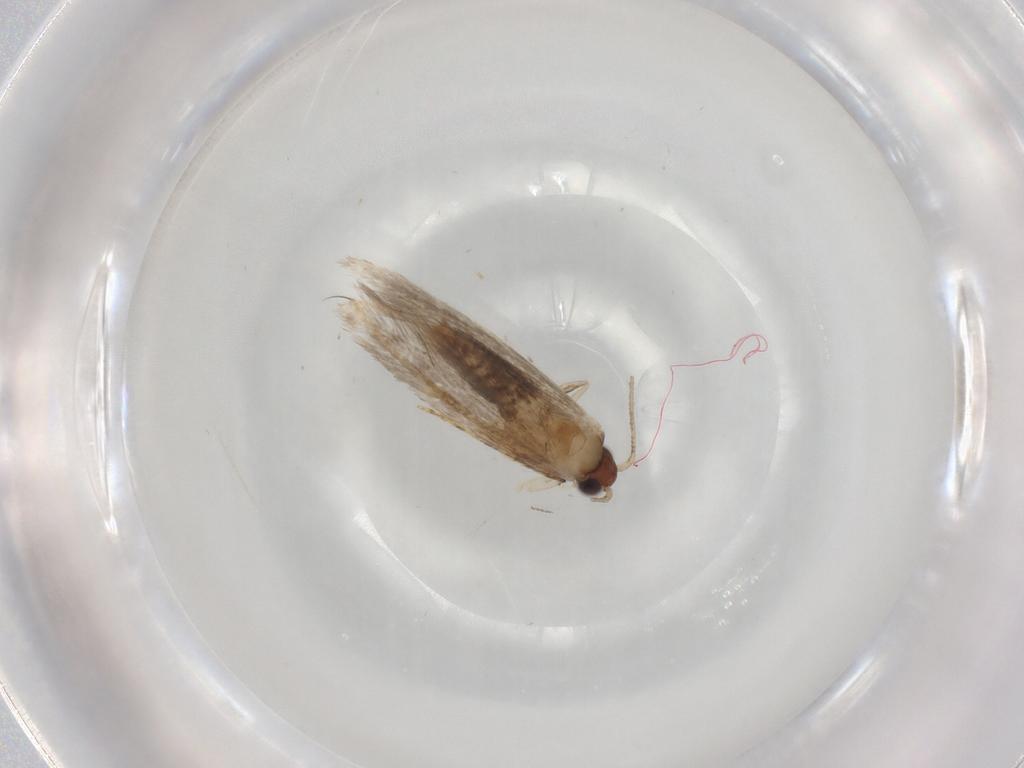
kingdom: Animalia
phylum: Arthropoda
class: Insecta
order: Lepidoptera
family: Tineidae
